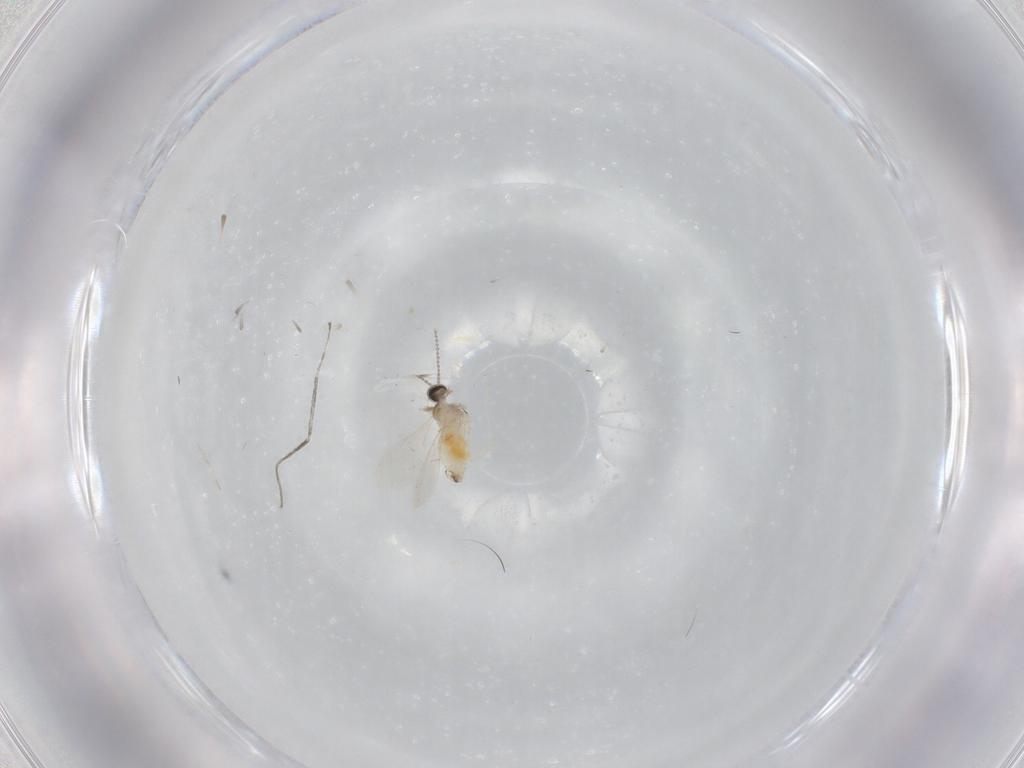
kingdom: Animalia
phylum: Arthropoda
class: Insecta
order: Diptera
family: Cecidomyiidae
